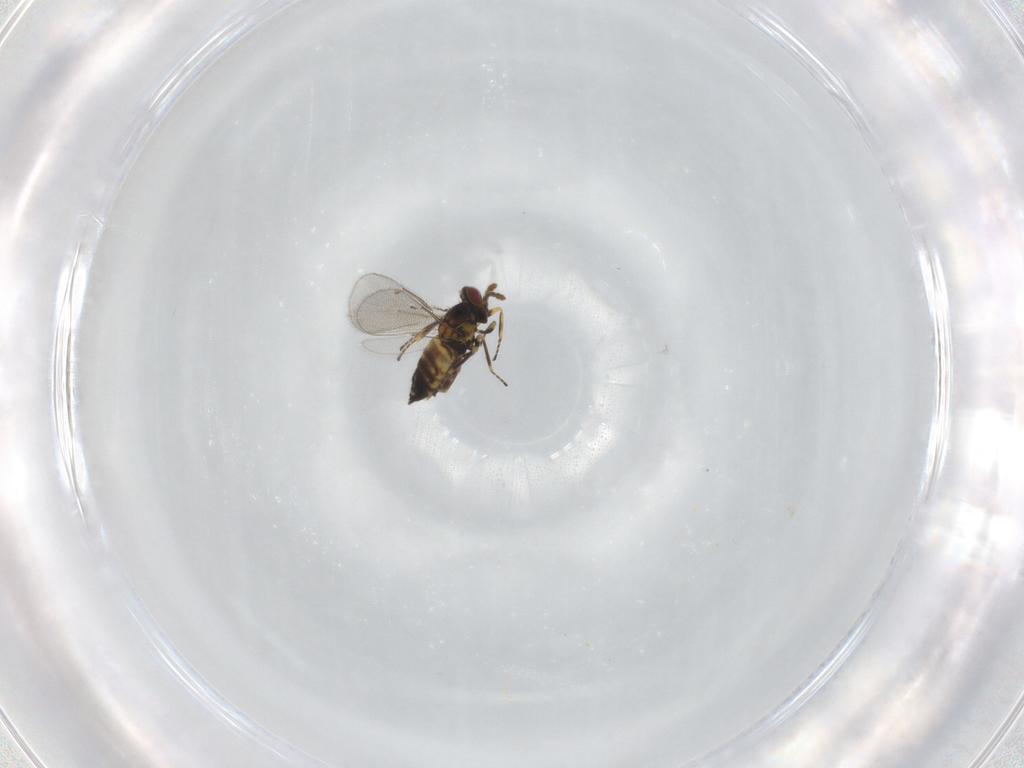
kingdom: Animalia
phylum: Arthropoda
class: Insecta
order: Hymenoptera
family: Eulophidae
